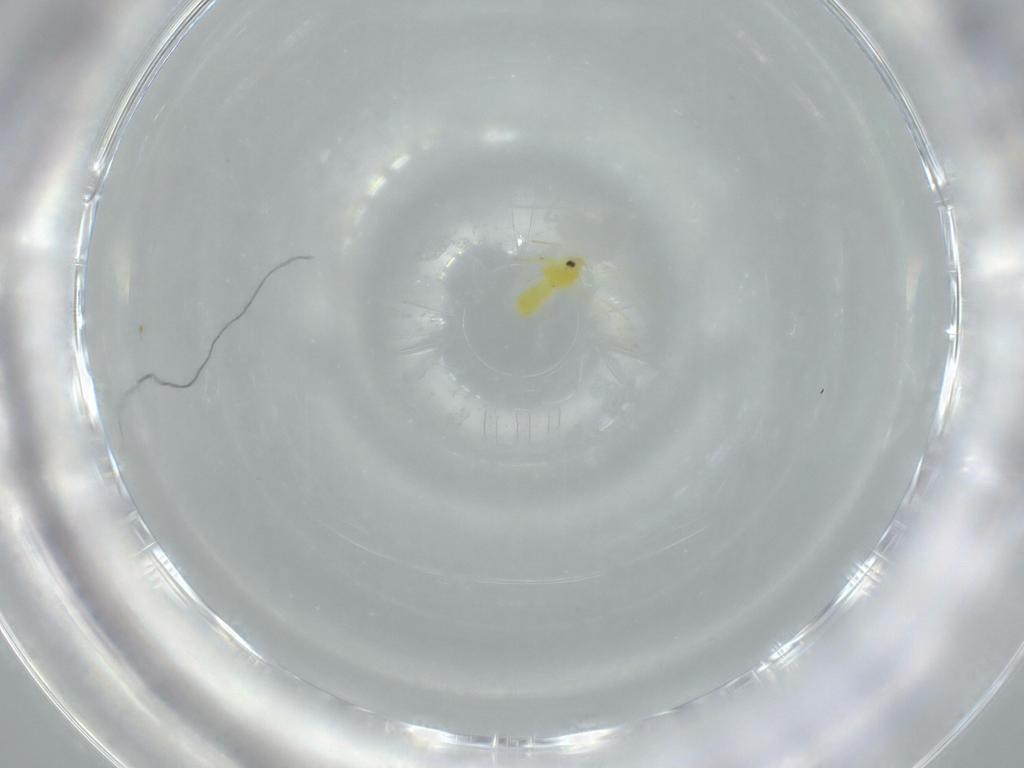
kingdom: Animalia
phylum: Arthropoda
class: Insecta
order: Hemiptera
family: Aleyrodidae
